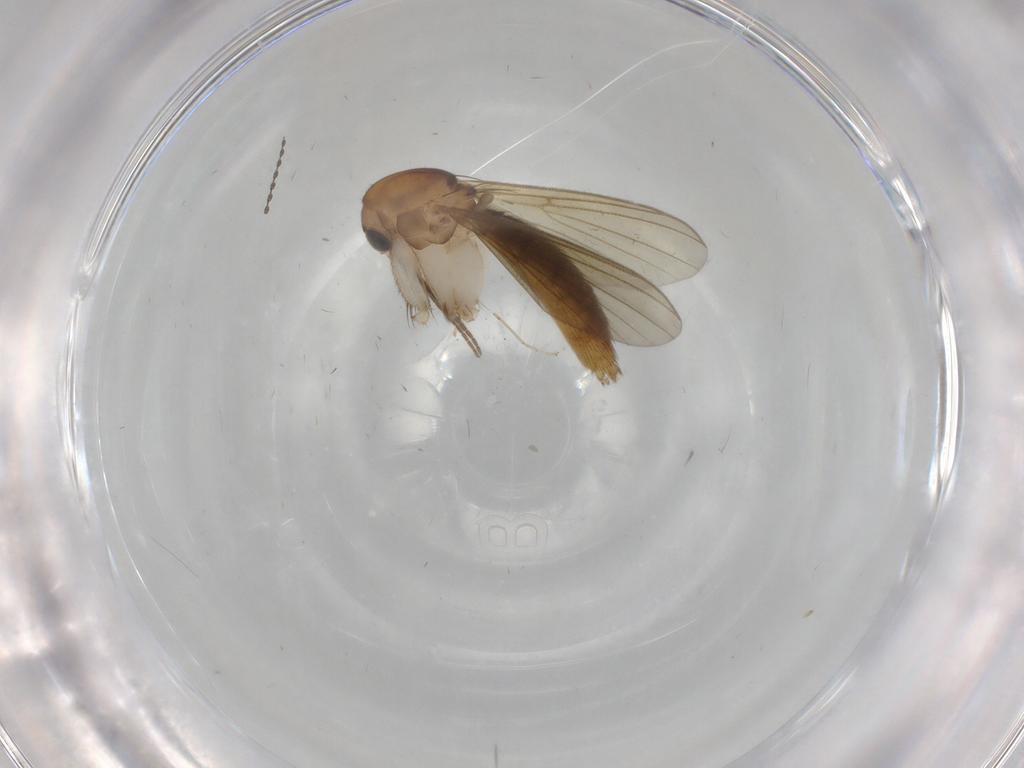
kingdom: Animalia
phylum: Arthropoda
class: Insecta
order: Diptera
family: Mycetophilidae
